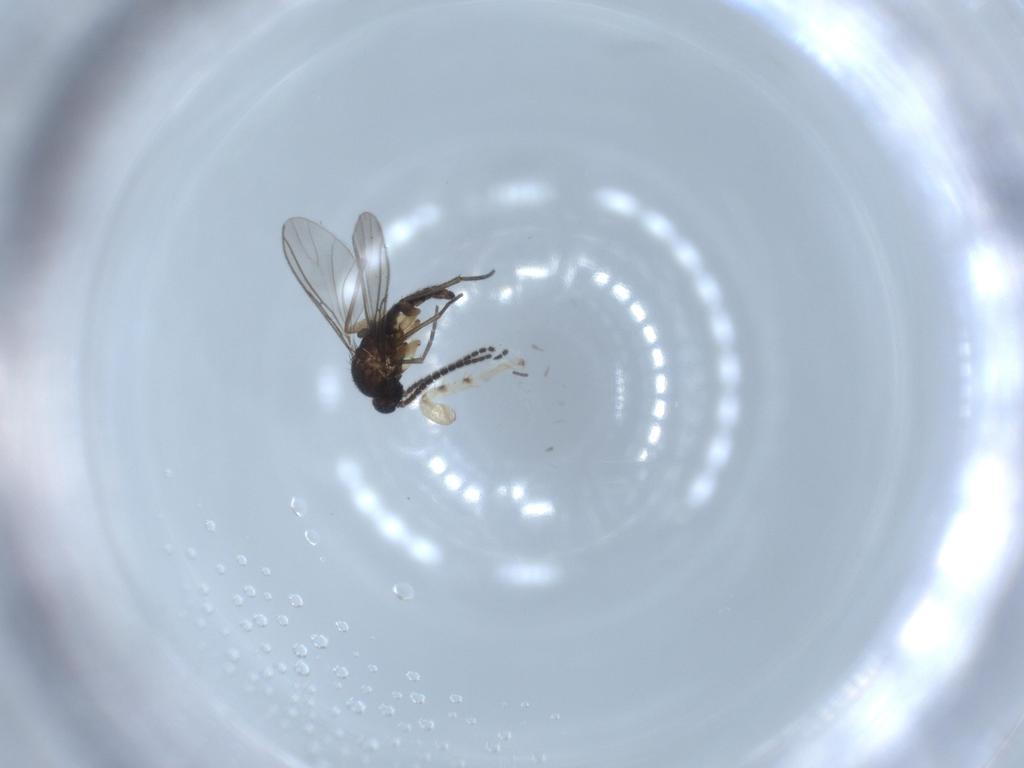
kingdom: Animalia
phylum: Arthropoda
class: Insecta
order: Diptera
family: Sciaridae
